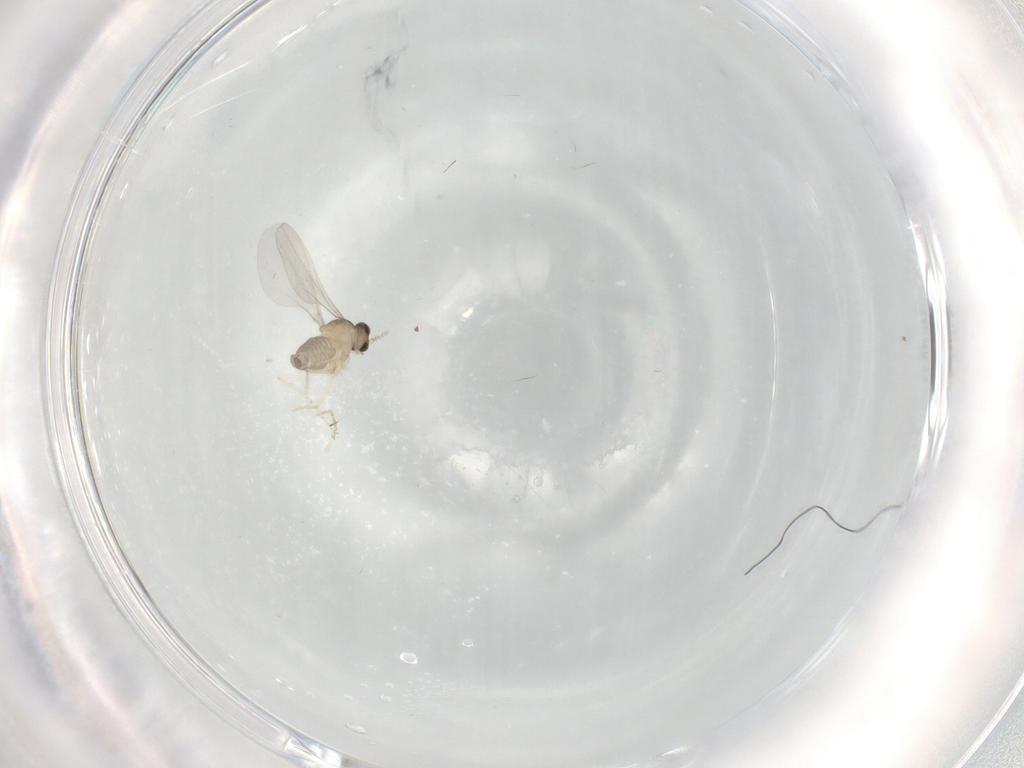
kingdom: Animalia
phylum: Arthropoda
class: Insecta
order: Diptera
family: Cecidomyiidae
